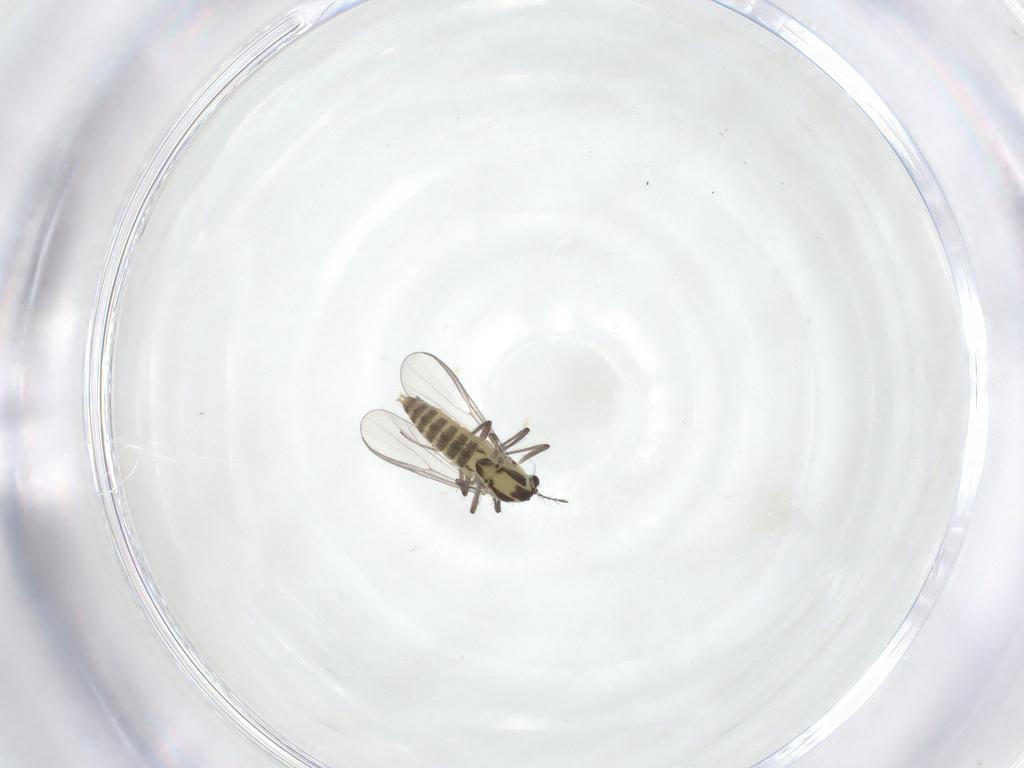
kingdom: Animalia
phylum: Arthropoda
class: Insecta
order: Diptera
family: Chironomidae
